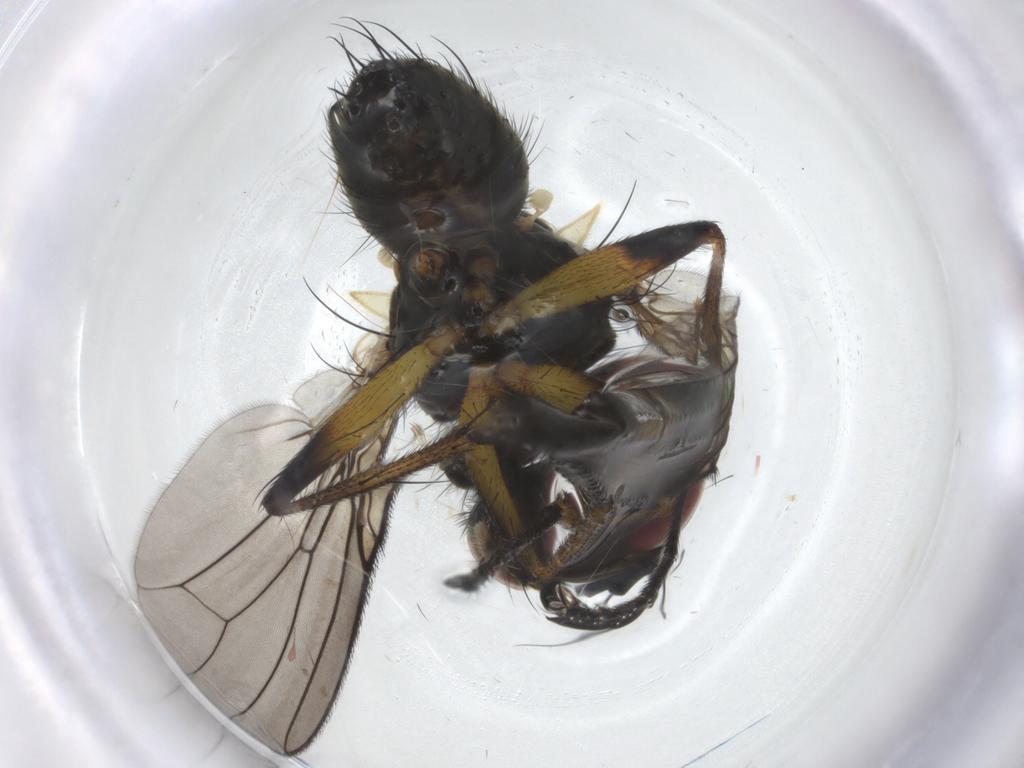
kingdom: Animalia
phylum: Arthropoda
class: Insecta
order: Diptera
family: Muscidae
